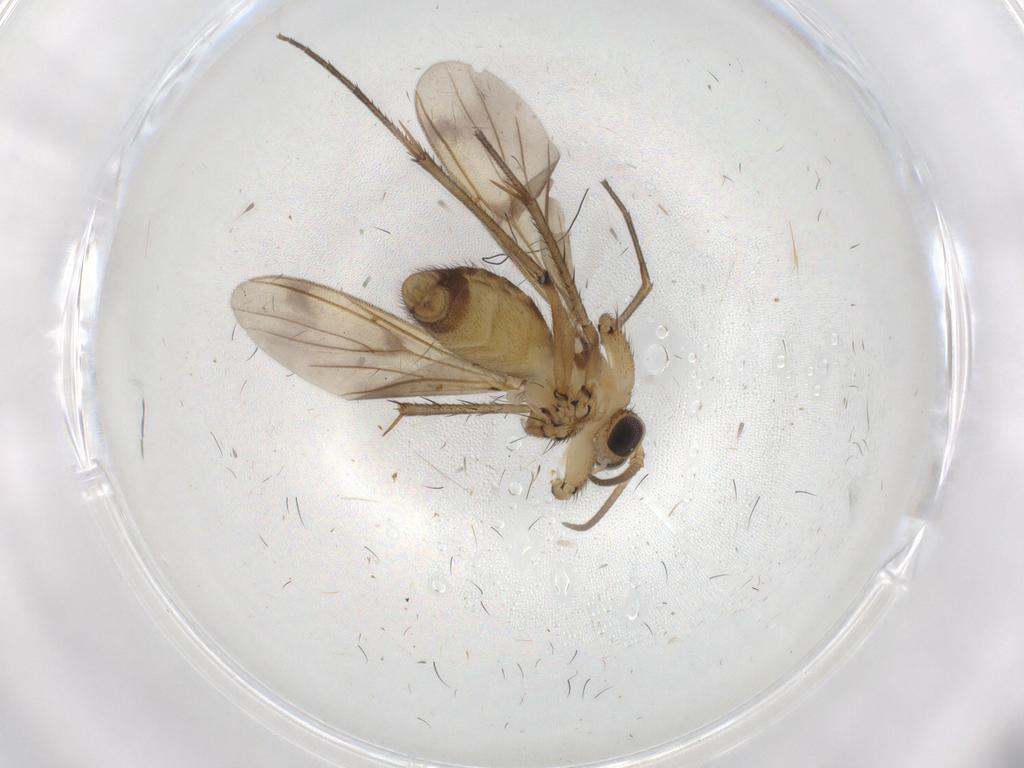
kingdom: Animalia
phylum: Arthropoda
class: Insecta
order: Diptera
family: Mycetophilidae
